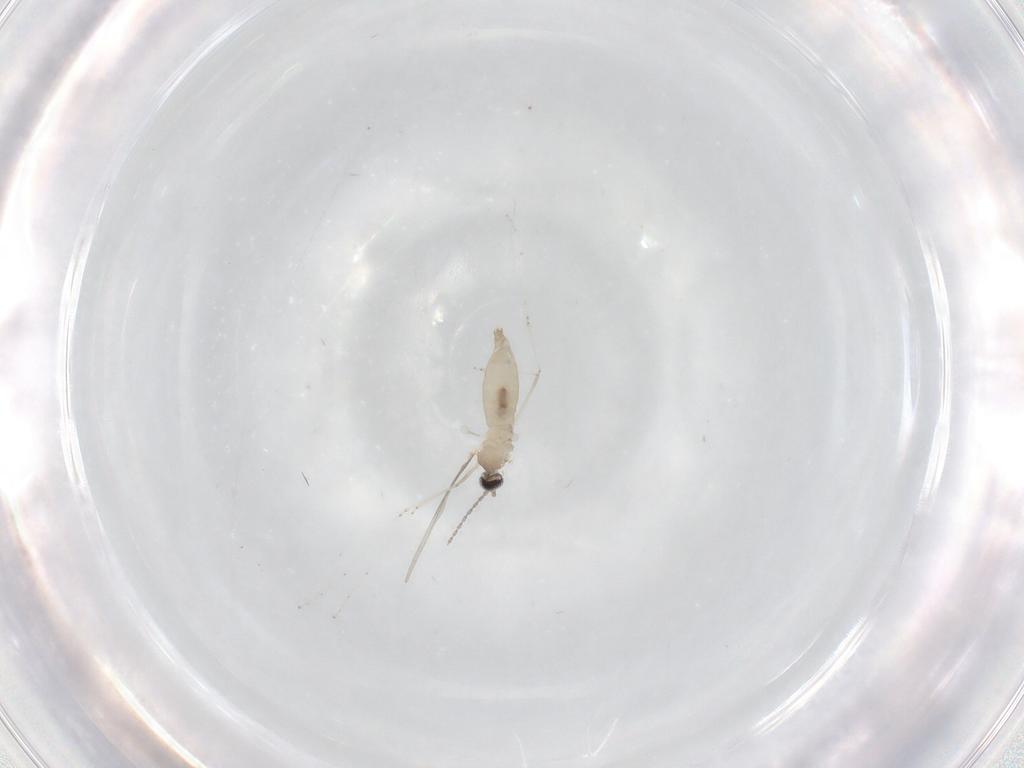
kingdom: Animalia
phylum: Arthropoda
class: Insecta
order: Diptera
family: Cecidomyiidae
